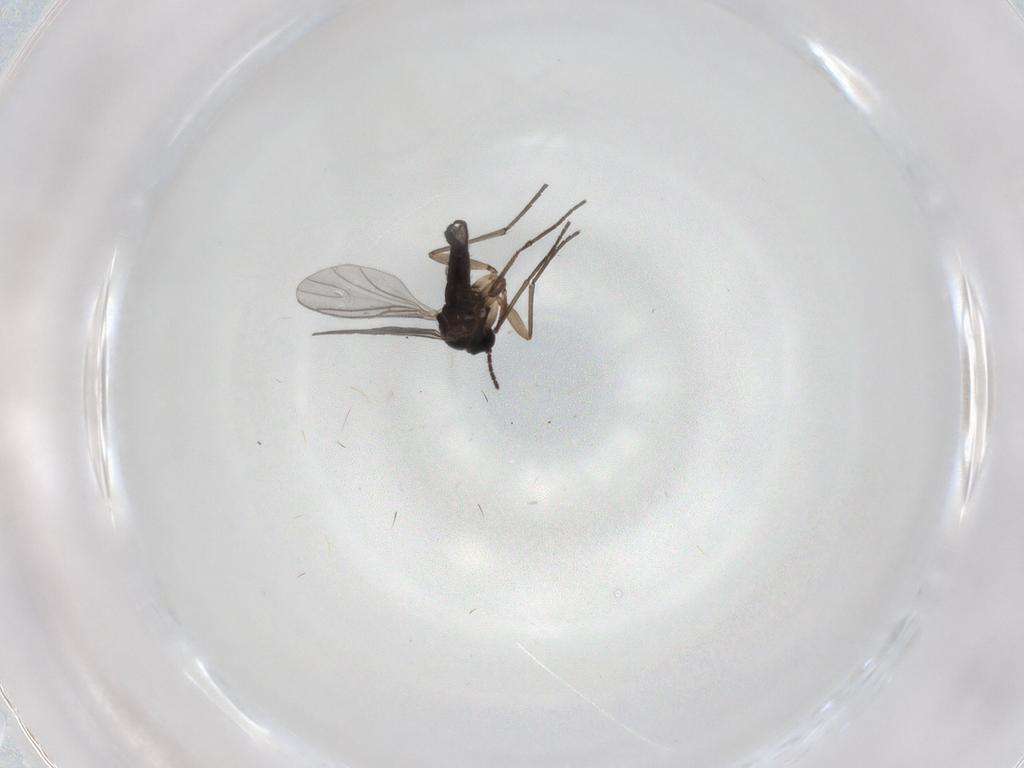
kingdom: Animalia
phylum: Arthropoda
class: Insecta
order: Diptera
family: Sciaridae
